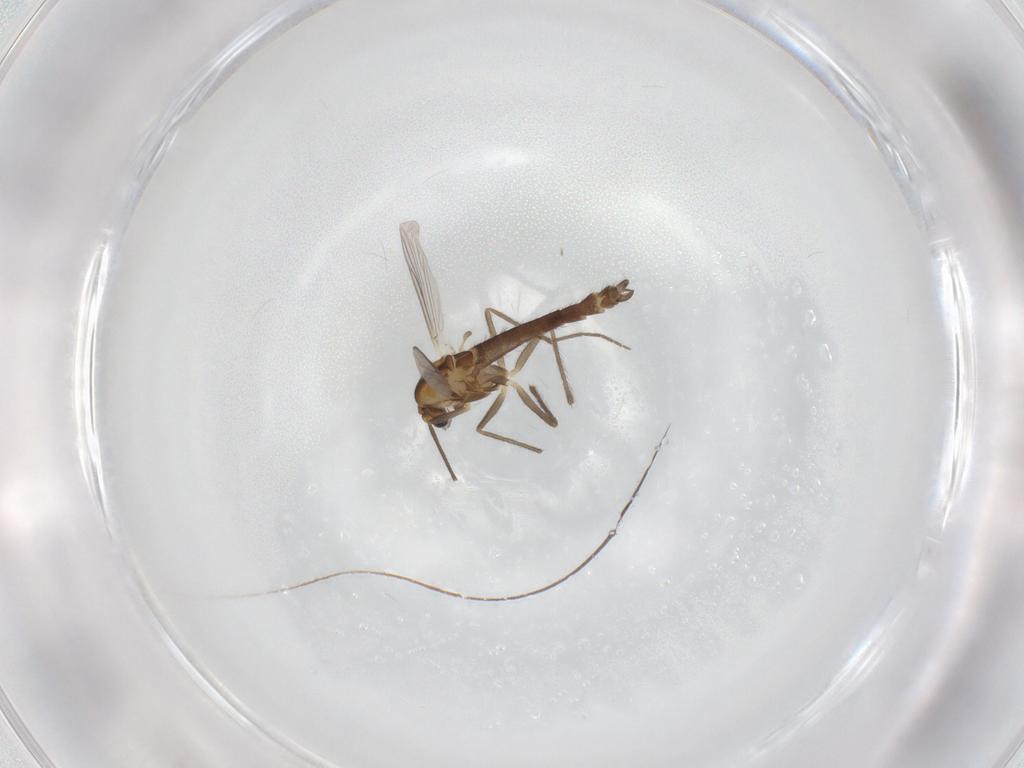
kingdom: Animalia
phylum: Arthropoda
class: Insecta
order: Diptera
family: Chironomidae
